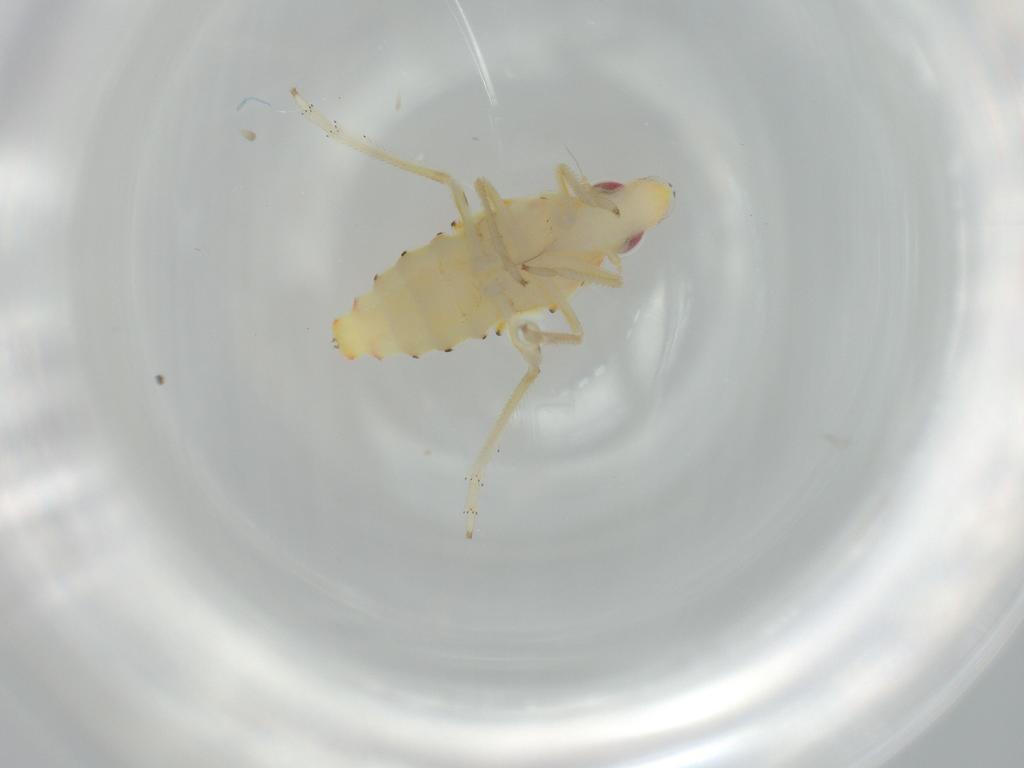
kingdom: Animalia
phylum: Arthropoda
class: Insecta
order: Hemiptera
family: Tropiduchidae
